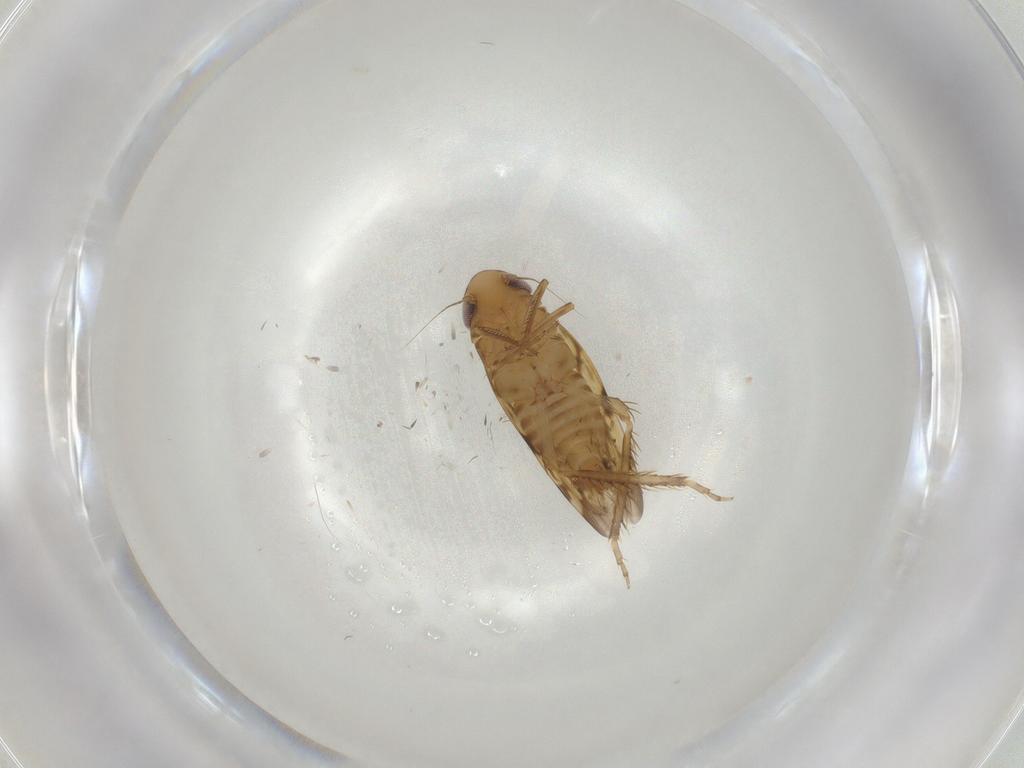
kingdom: Animalia
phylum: Arthropoda
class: Insecta
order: Hemiptera
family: Cicadellidae
